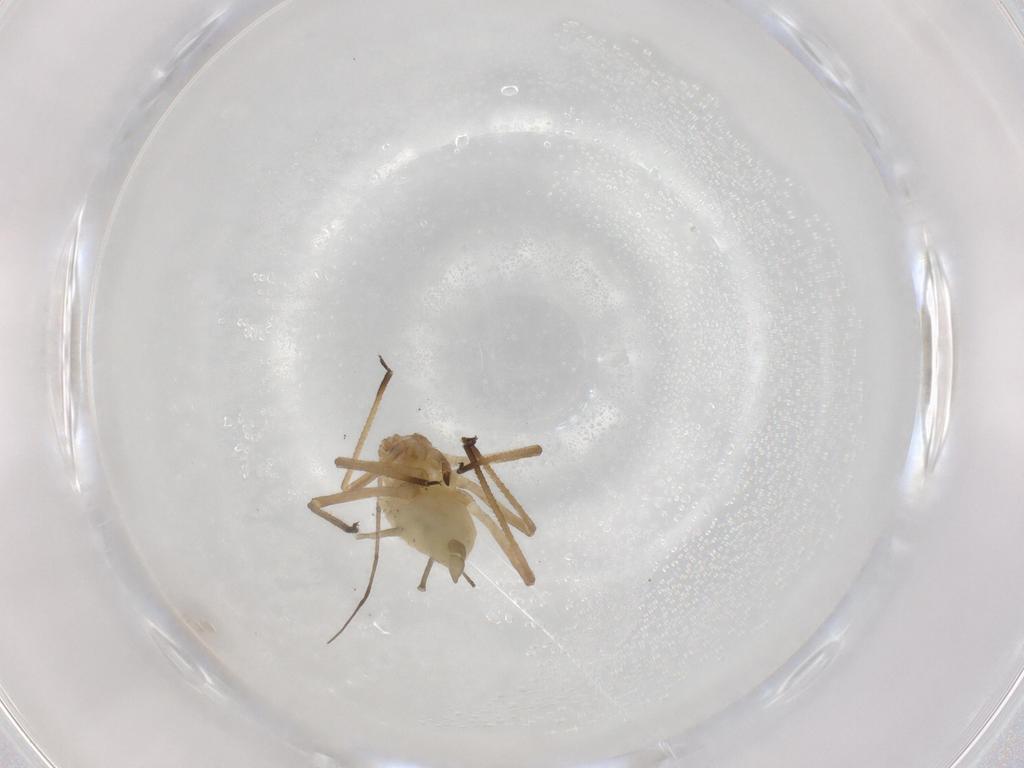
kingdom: Animalia
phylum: Arthropoda
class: Insecta
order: Hemiptera
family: Aphididae
